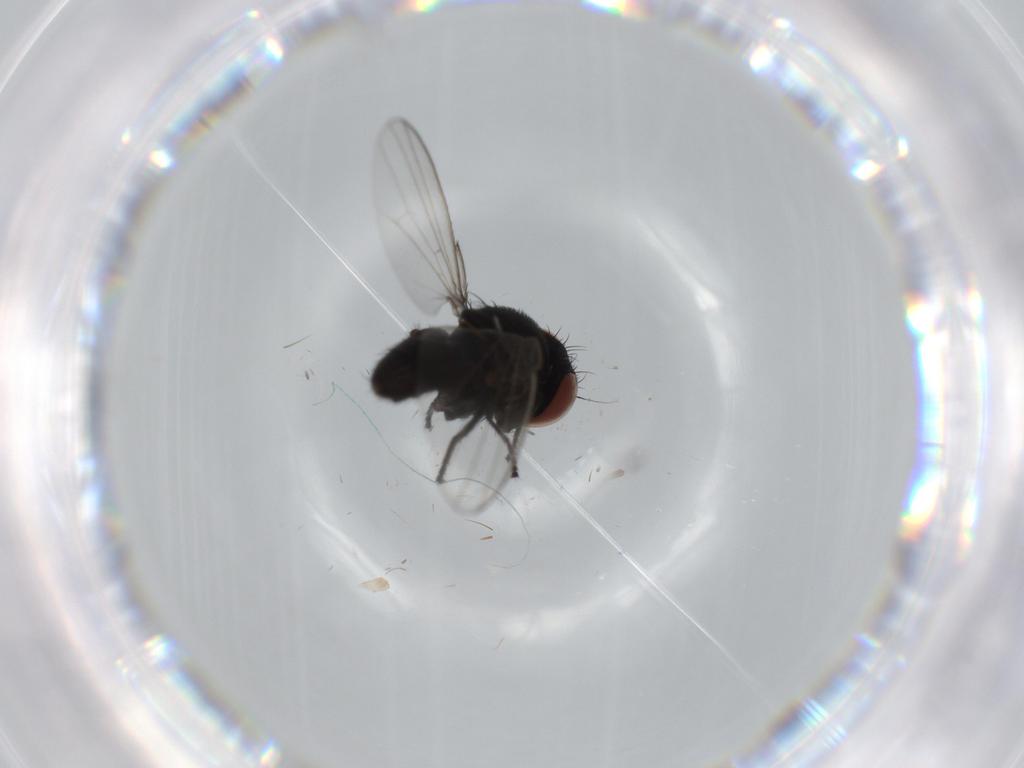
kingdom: Animalia
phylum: Arthropoda
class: Insecta
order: Diptera
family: Milichiidae
